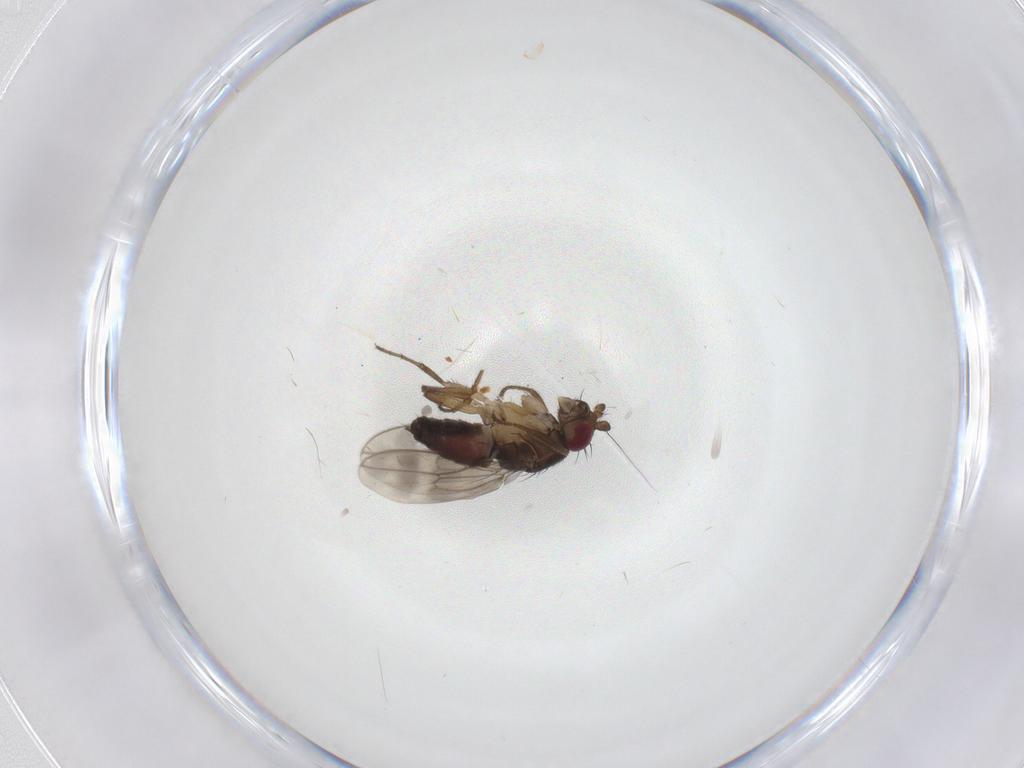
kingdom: Animalia
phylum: Arthropoda
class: Insecta
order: Diptera
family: Sphaeroceridae
